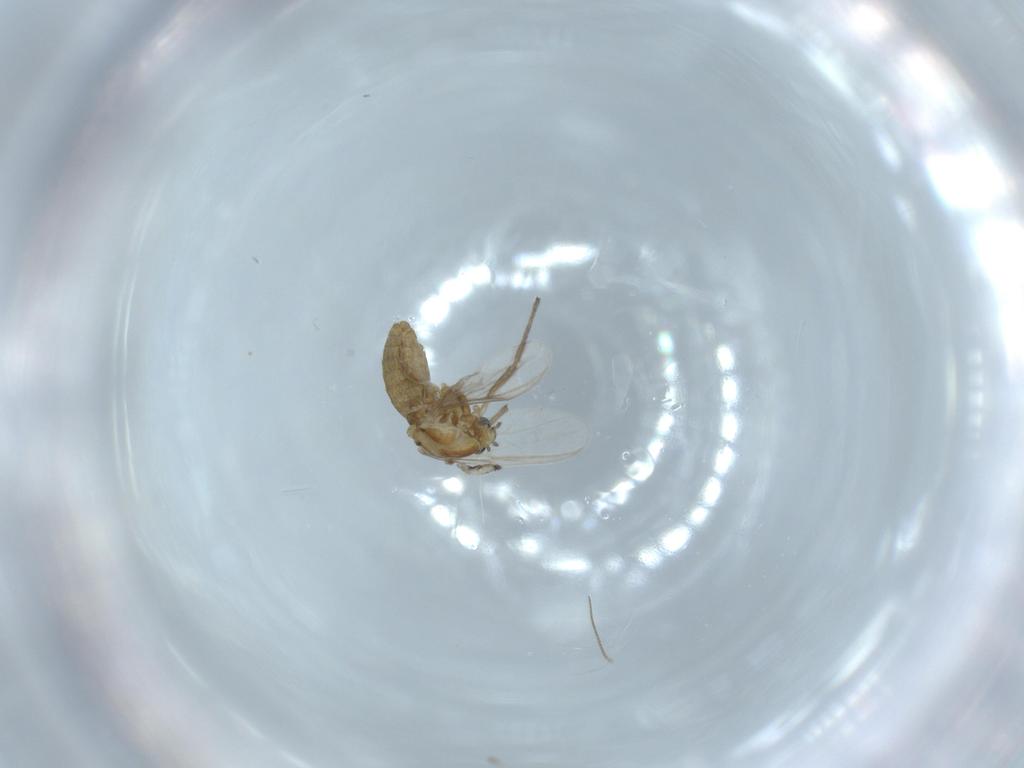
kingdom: Animalia
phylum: Arthropoda
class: Insecta
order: Diptera
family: Chironomidae
